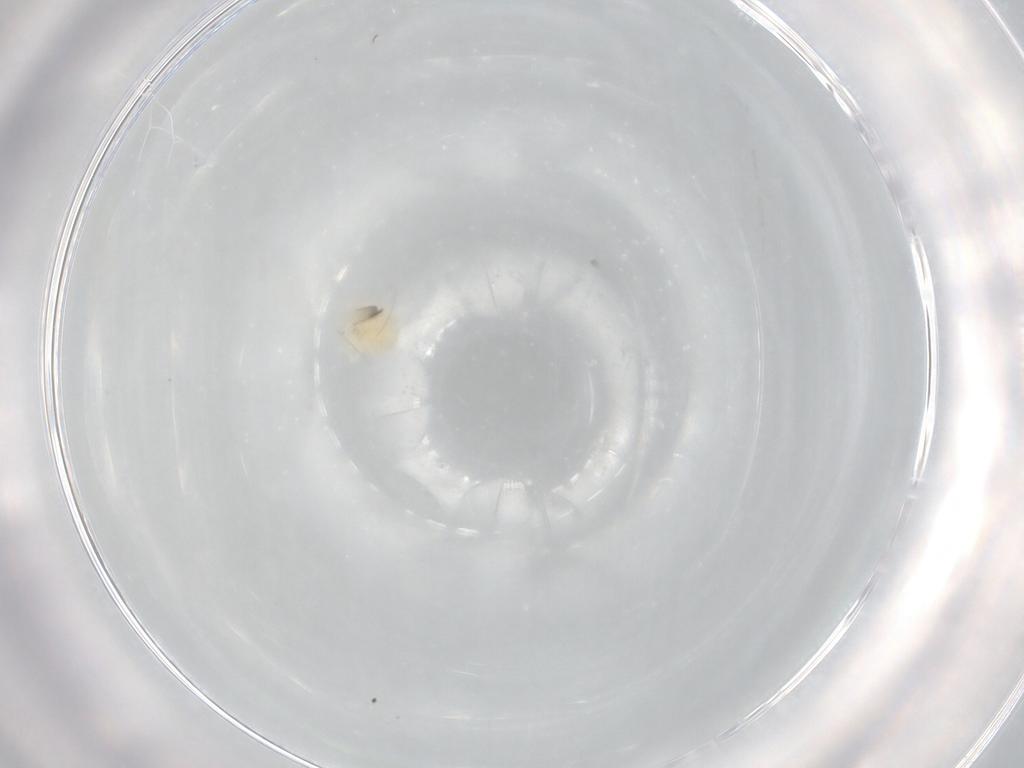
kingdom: Animalia
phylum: Arthropoda
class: Arachnida
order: Trombidiformes
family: Anystidae
